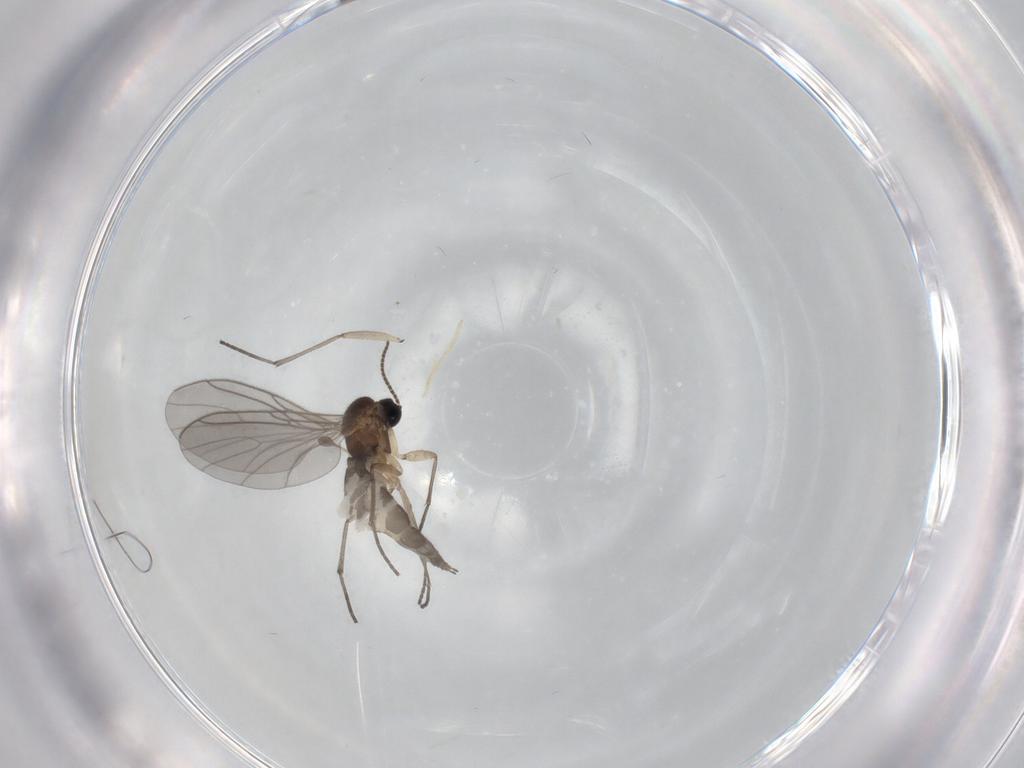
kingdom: Animalia
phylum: Arthropoda
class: Insecta
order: Diptera
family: Sciaridae
